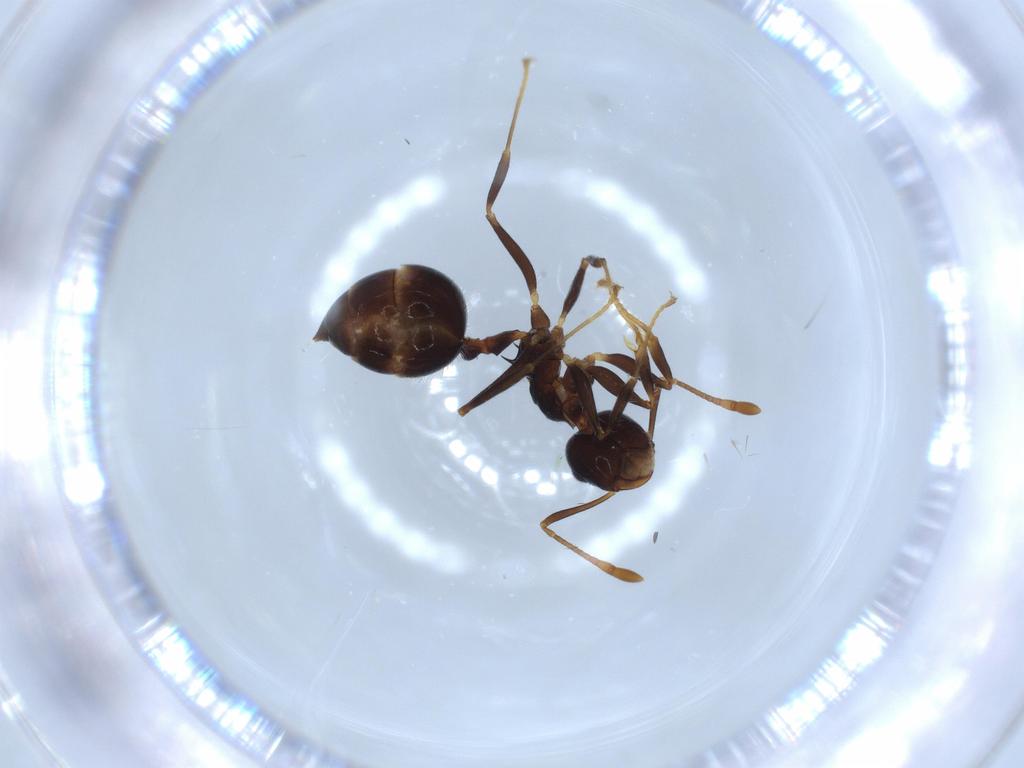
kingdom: Animalia
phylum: Arthropoda
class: Insecta
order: Hymenoptera
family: Formicidae
